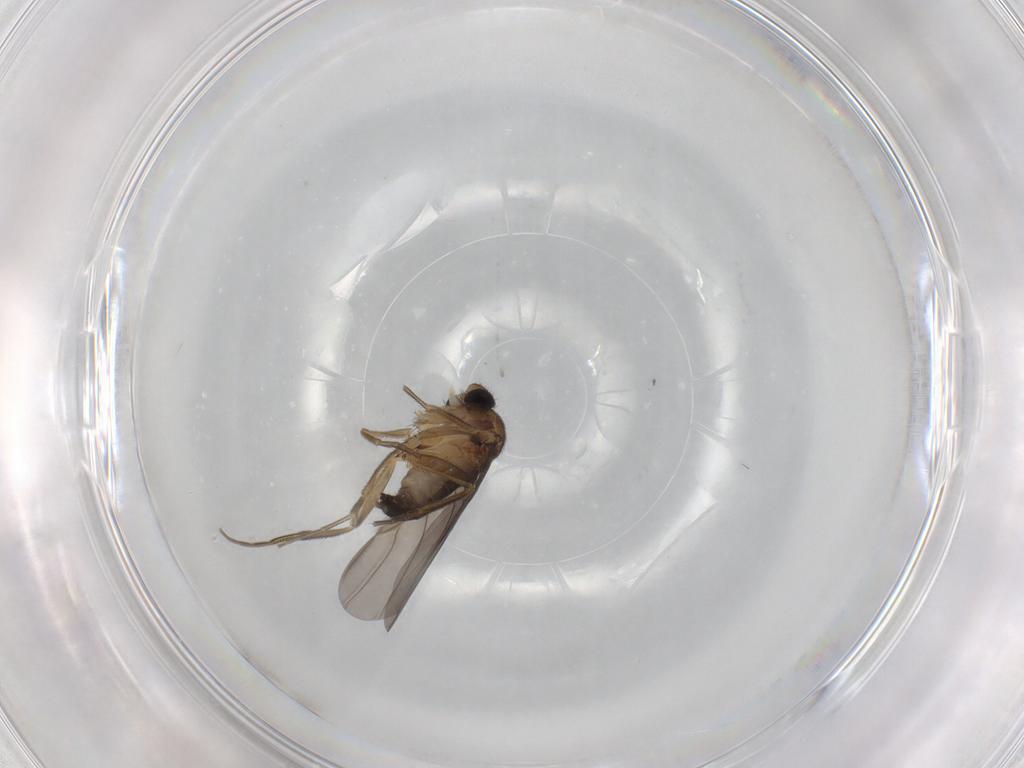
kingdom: Animalia
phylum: Arthropoda
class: Insecta
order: Diptera
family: Phoridae
